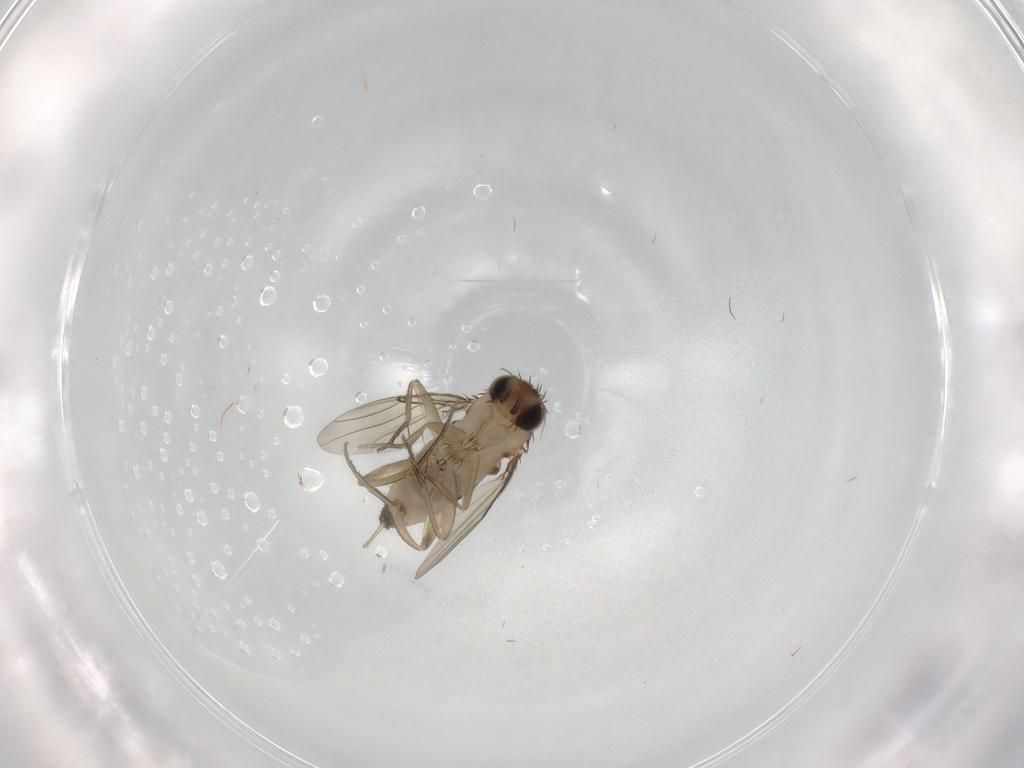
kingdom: Animalia
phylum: Arthropoda
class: Insecta
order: Diptera
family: Phoridae
